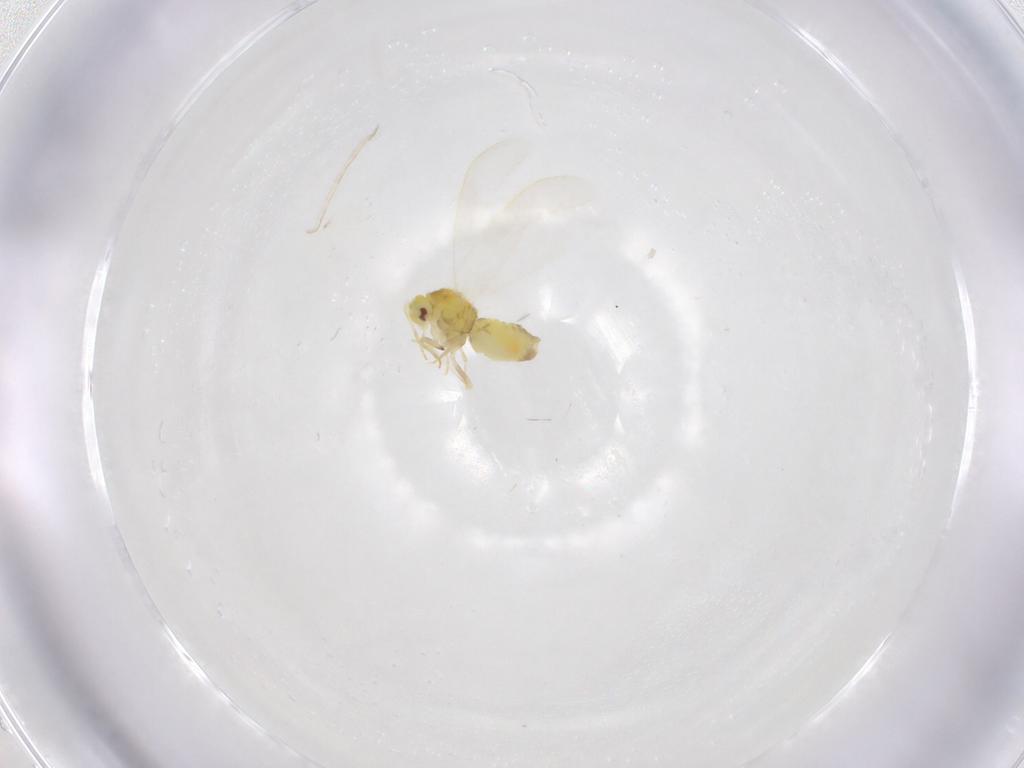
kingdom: Animalia
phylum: Arthropoda
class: Insecta
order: Hemiptera
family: Aleyrodidae
